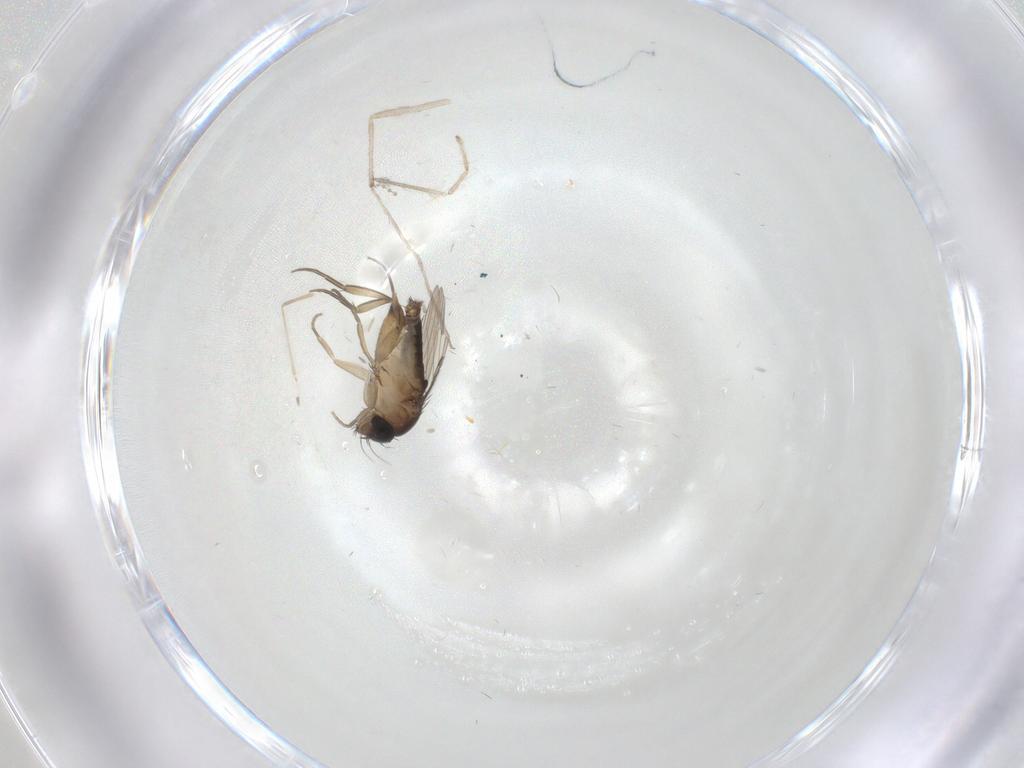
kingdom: Animalia
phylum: Arthropoda
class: Insecta
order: Diptera
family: Phoridae
